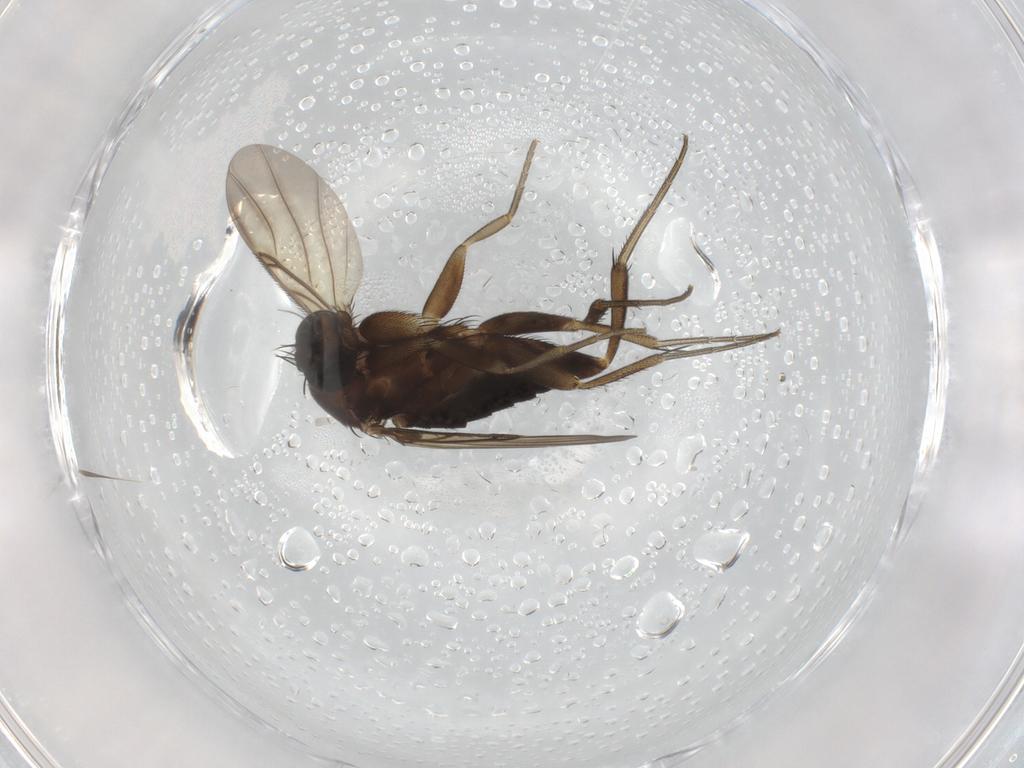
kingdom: Animalia
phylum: Arthropoda
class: Insecta
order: Diptera
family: Phoridae
